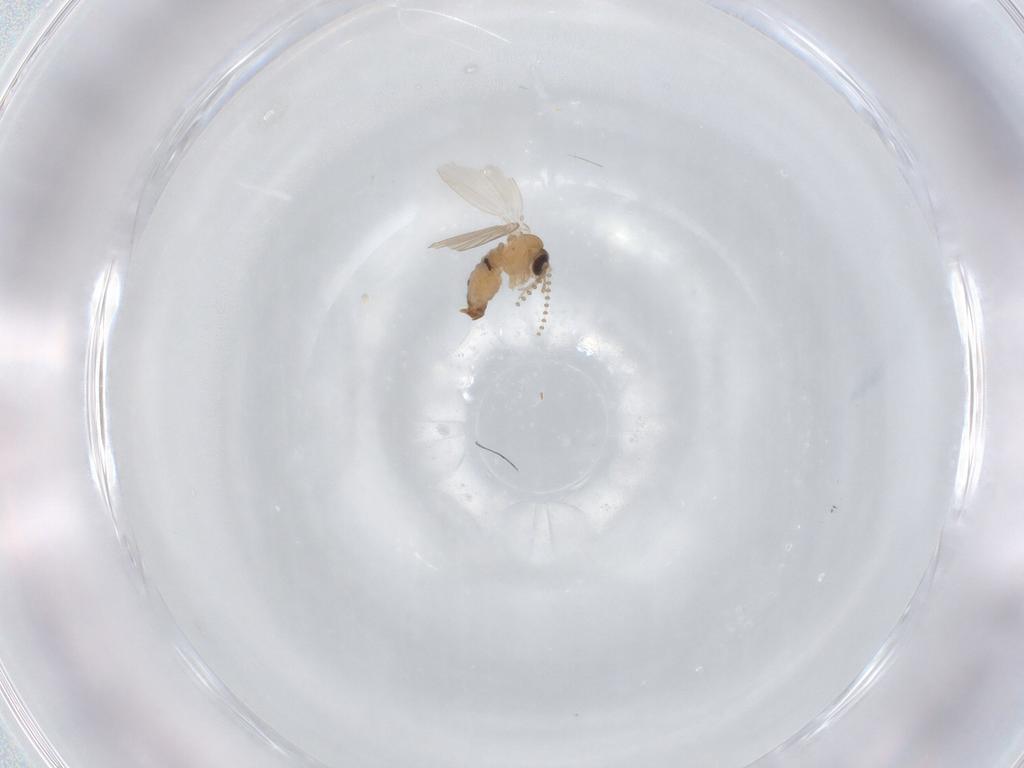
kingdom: Animalia
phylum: Arthropoda
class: Insecta
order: Diptera
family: Psychodidae
